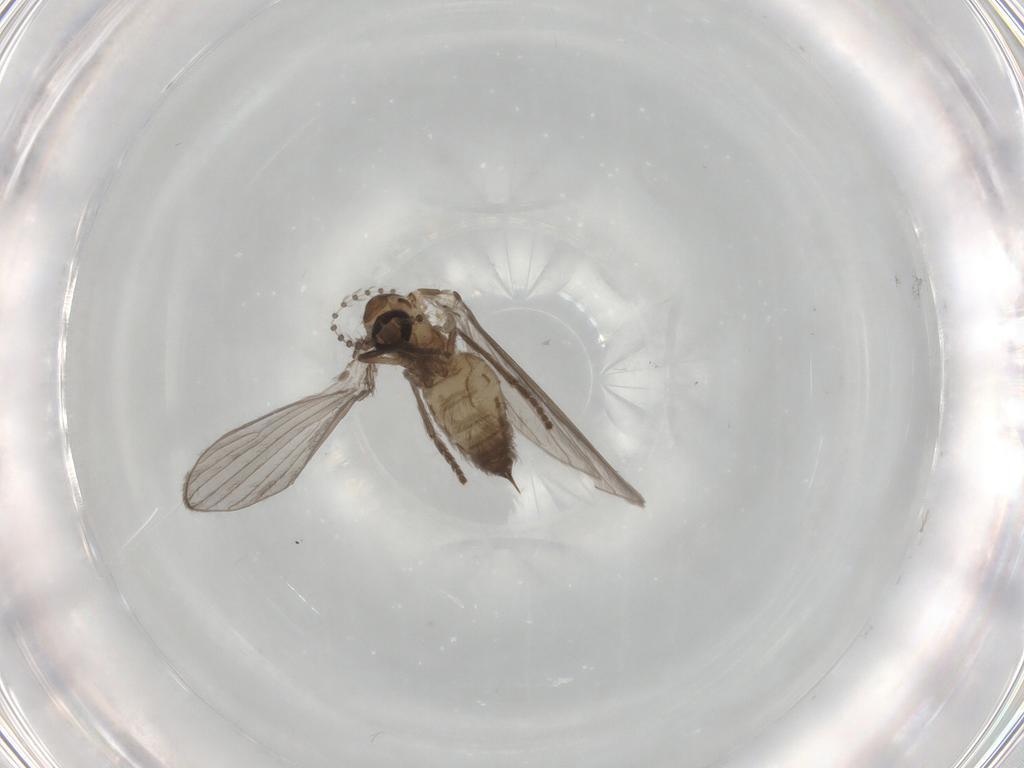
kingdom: Animalia
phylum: Arthropoda
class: Insecta
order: Diptera
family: Psychodidae
